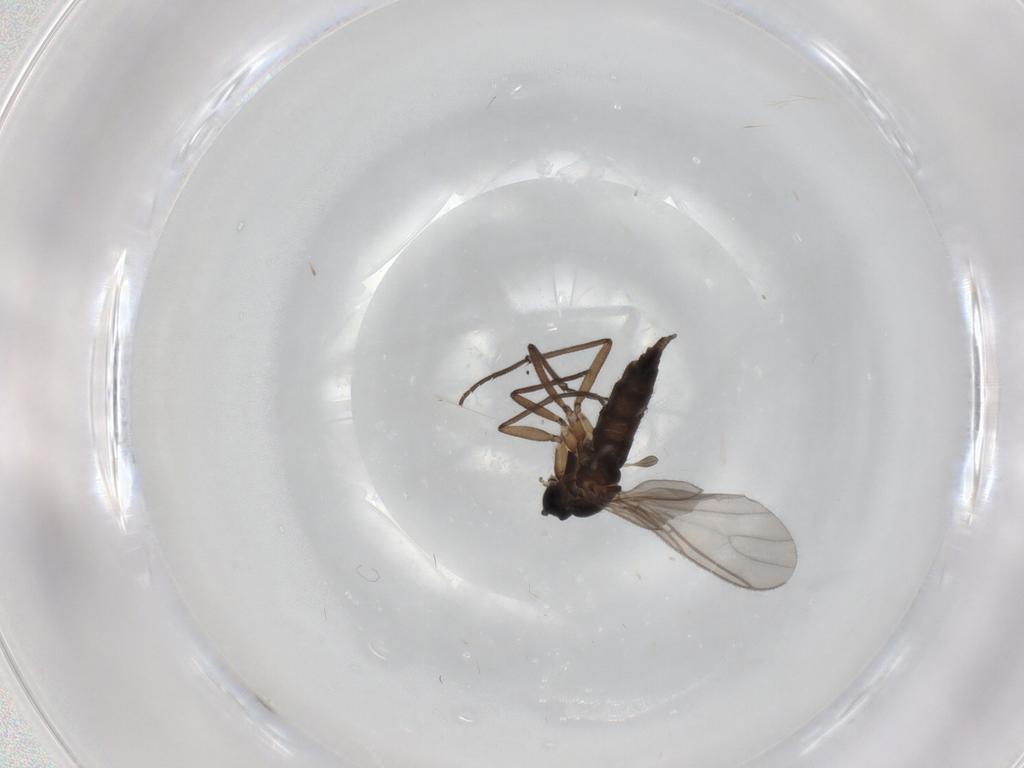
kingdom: Animalia
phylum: Arthropoda
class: Insecta
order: Diptera
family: Sciaridae
